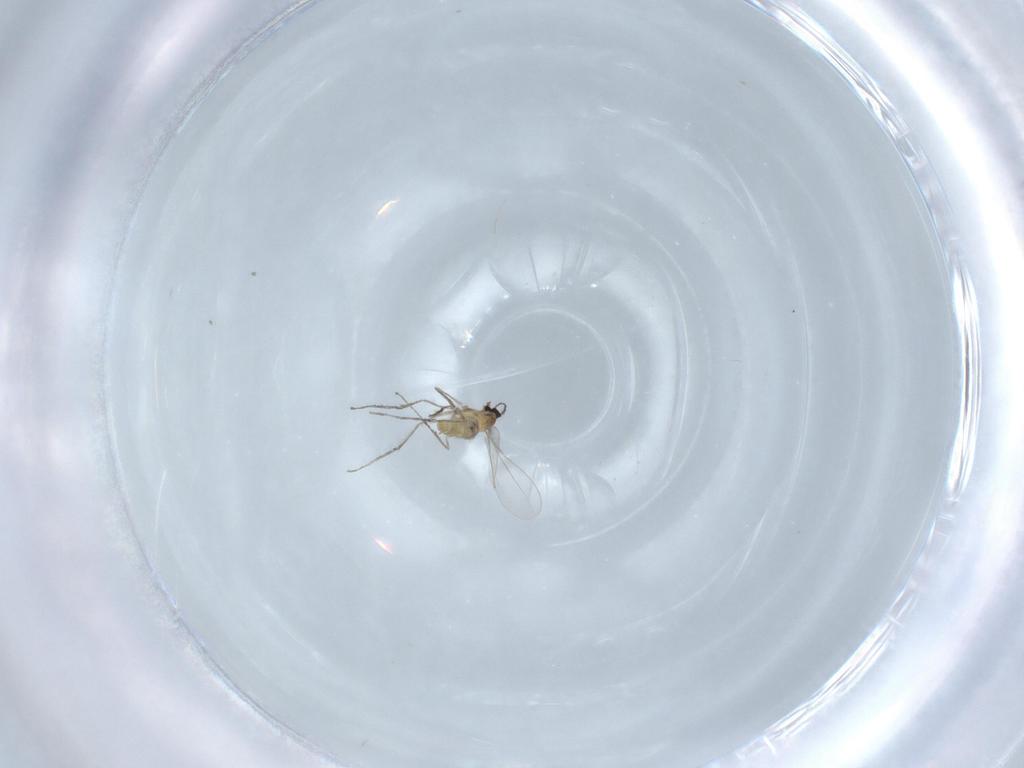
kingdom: Animalia
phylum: Arthropoda
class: Insecta
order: Diptera
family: Cecidomyiidae
